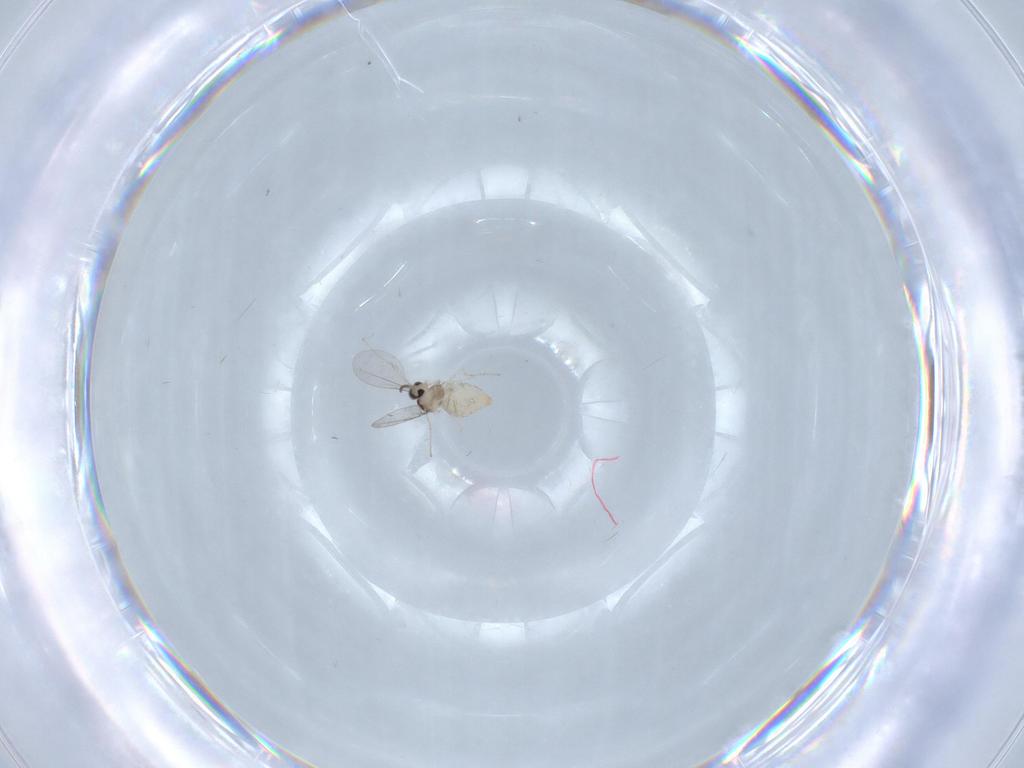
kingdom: Animalia
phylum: Arthropoda
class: Insecta
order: Diptera
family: Cecidomyiidae
